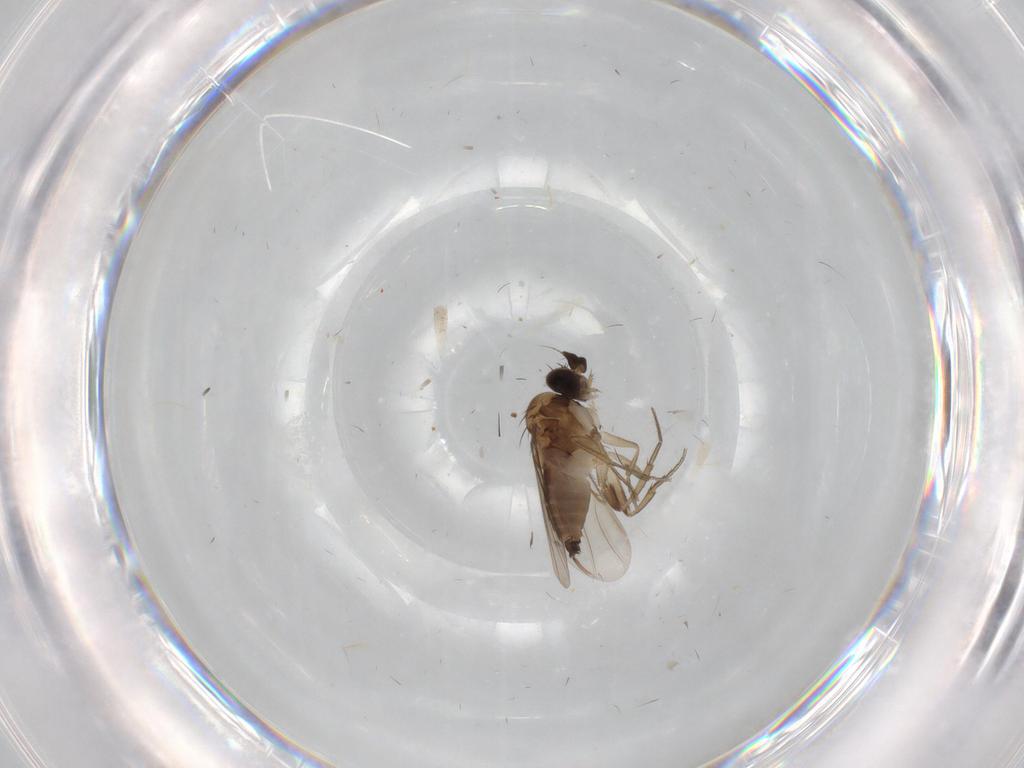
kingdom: Animalia
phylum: Arthropoda
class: Insecta
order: Diptera
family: Phoridae
